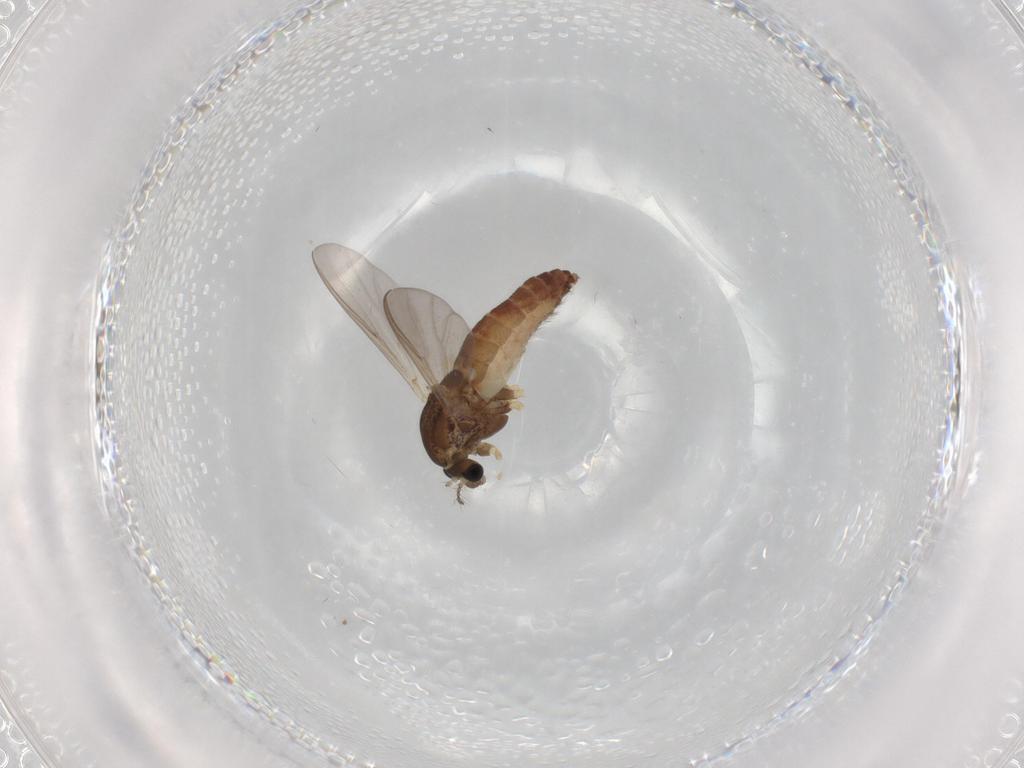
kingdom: Animalia
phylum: Arthropoda
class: Insecta
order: Diptera
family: Chironomidae
